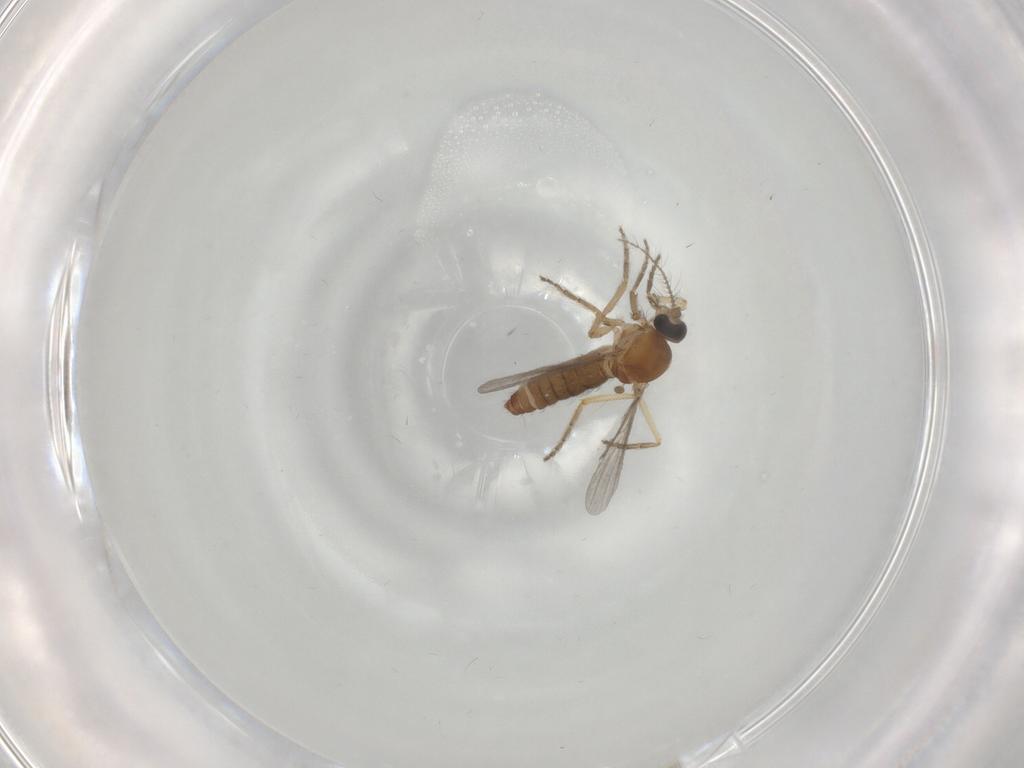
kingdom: Animalia
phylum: Arthropoda
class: Insecta
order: Diptera
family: Ceratopogonidae
